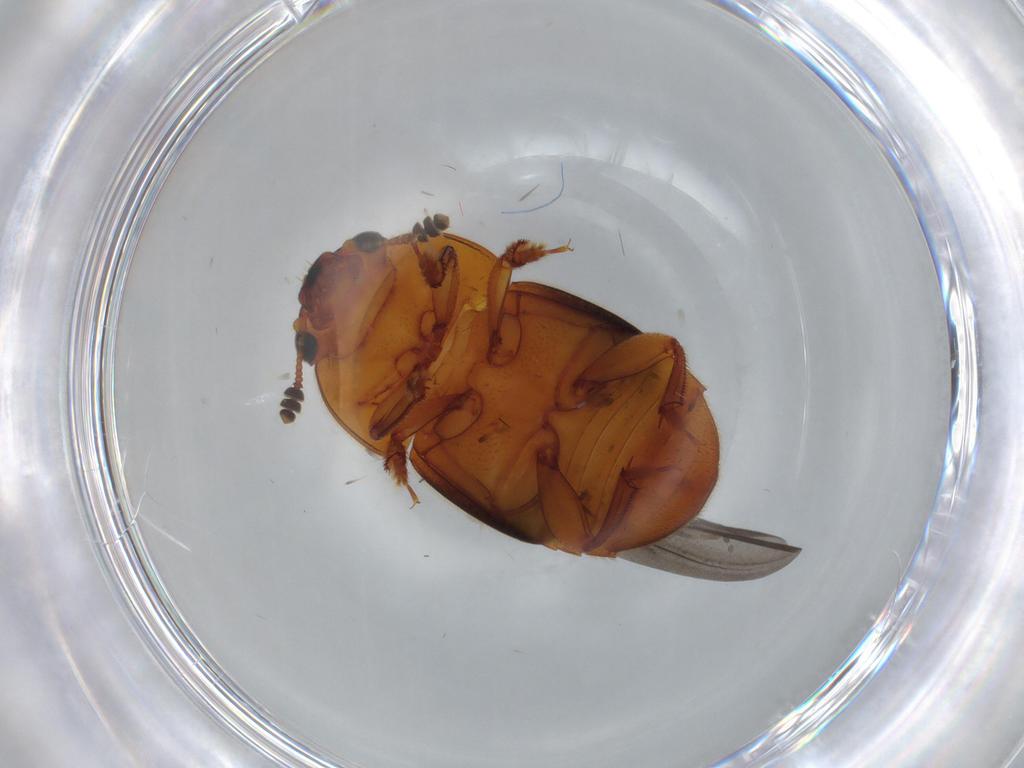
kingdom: Animalia
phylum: Arthropoda
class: Insecta
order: Coleoptera
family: Nitidulidae
